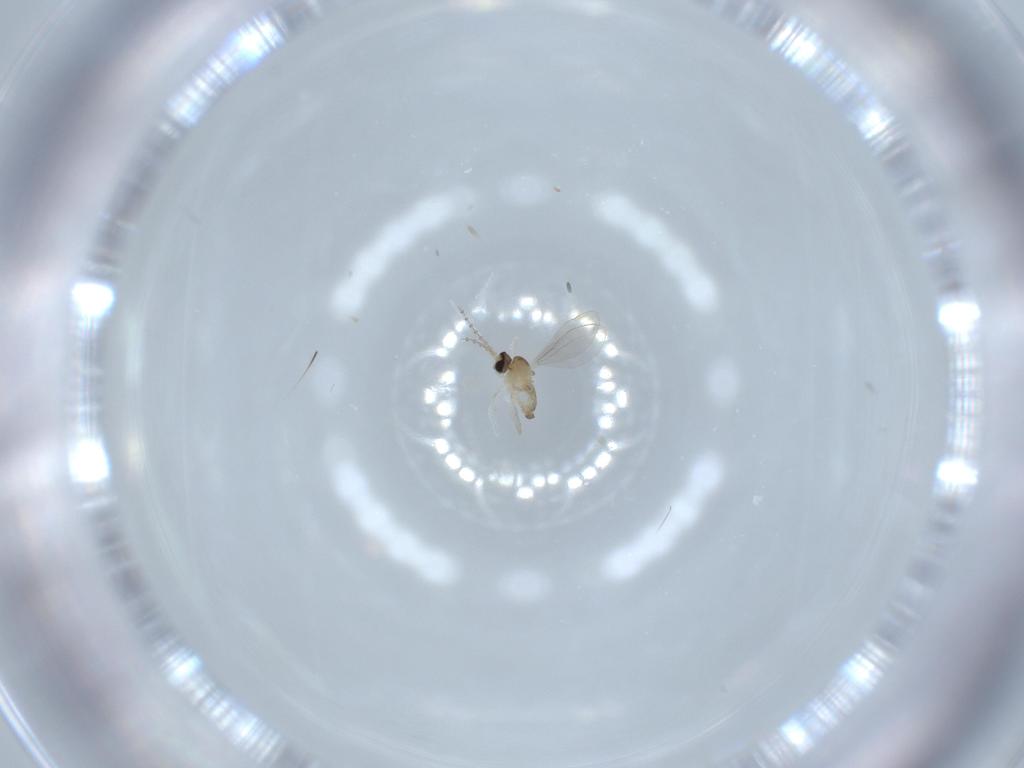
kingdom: Animalia
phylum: Arthropoda
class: Insecta
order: Diptera
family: Cecidomyiidae
